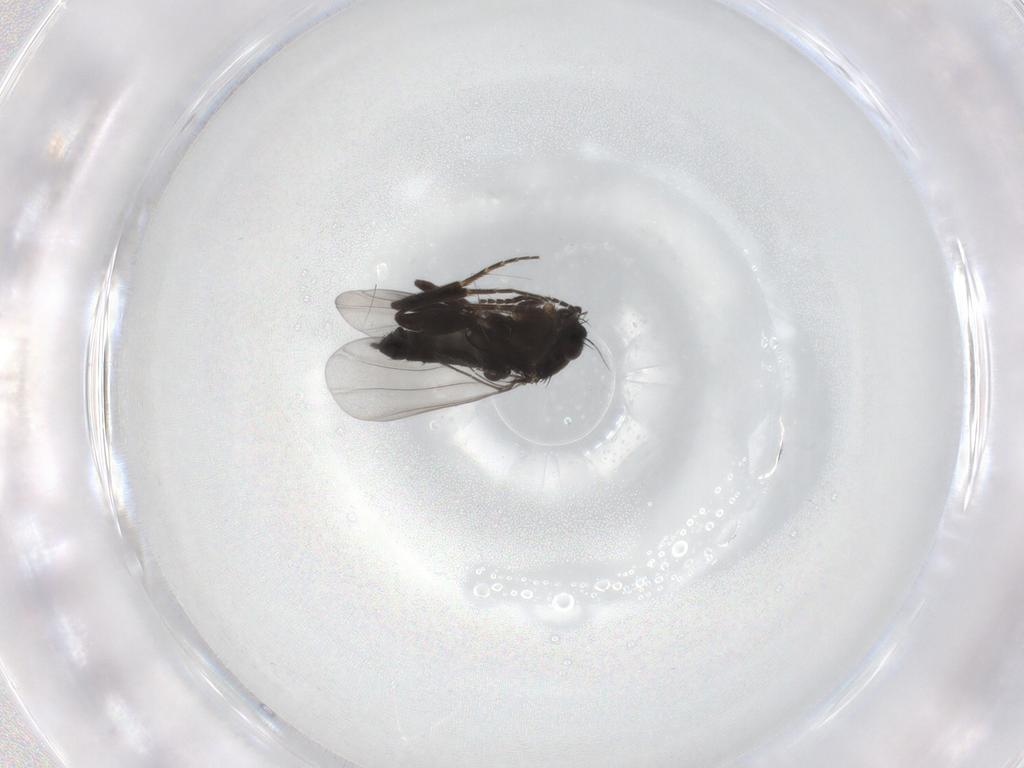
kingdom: Animalia
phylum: Arthropoda
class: Insecta
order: Diptera
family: Phoridae
